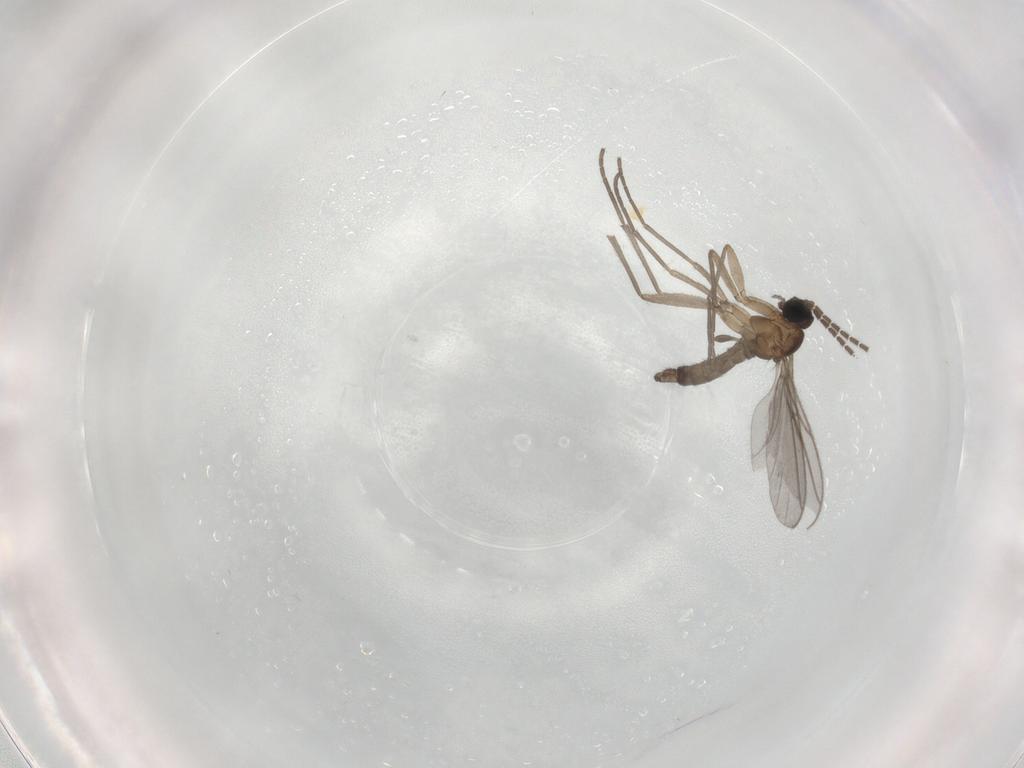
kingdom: Animalia
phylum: Arthropoda
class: Insecta
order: Diptera
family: Sciaridae
